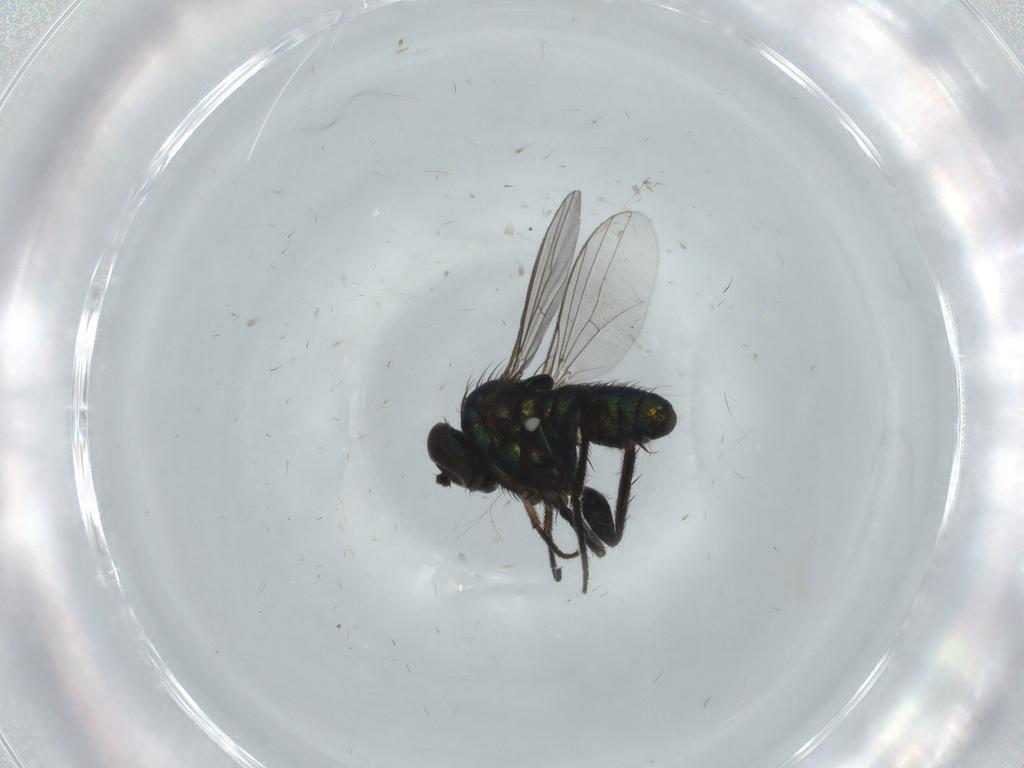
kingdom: Animalia
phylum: Arthropoda
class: Insecta
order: Diptera
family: Dolichopodidae
